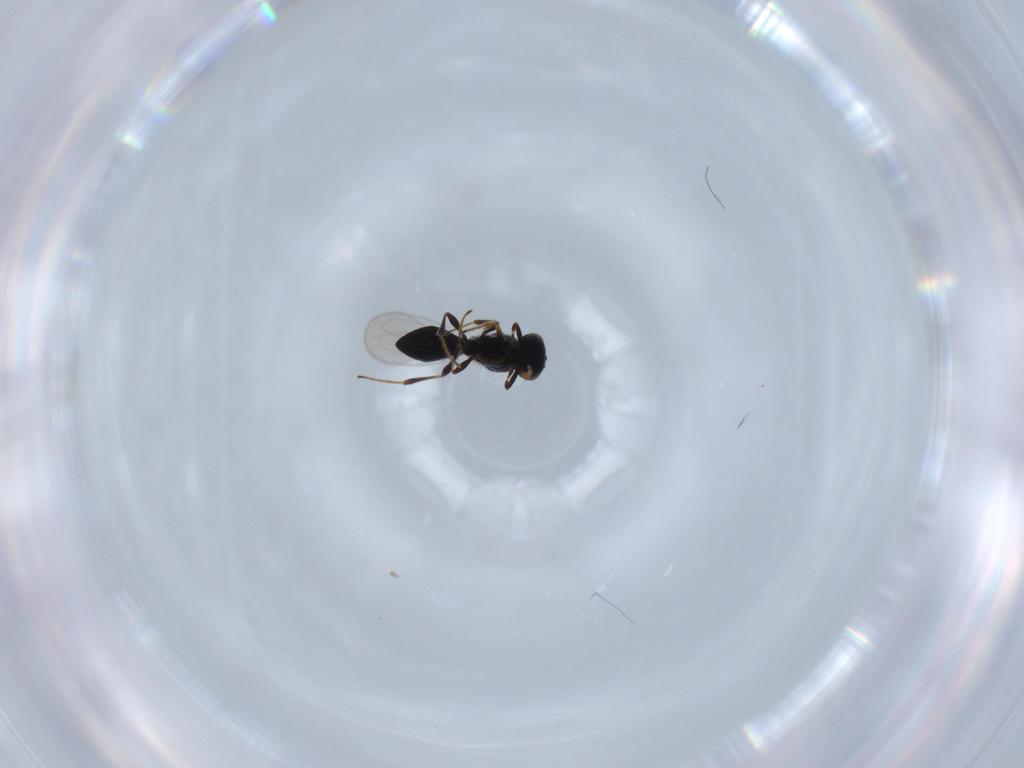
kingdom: Animalia
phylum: Arthropoda
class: Insecta
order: Hymenoptera
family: Platygastridae
